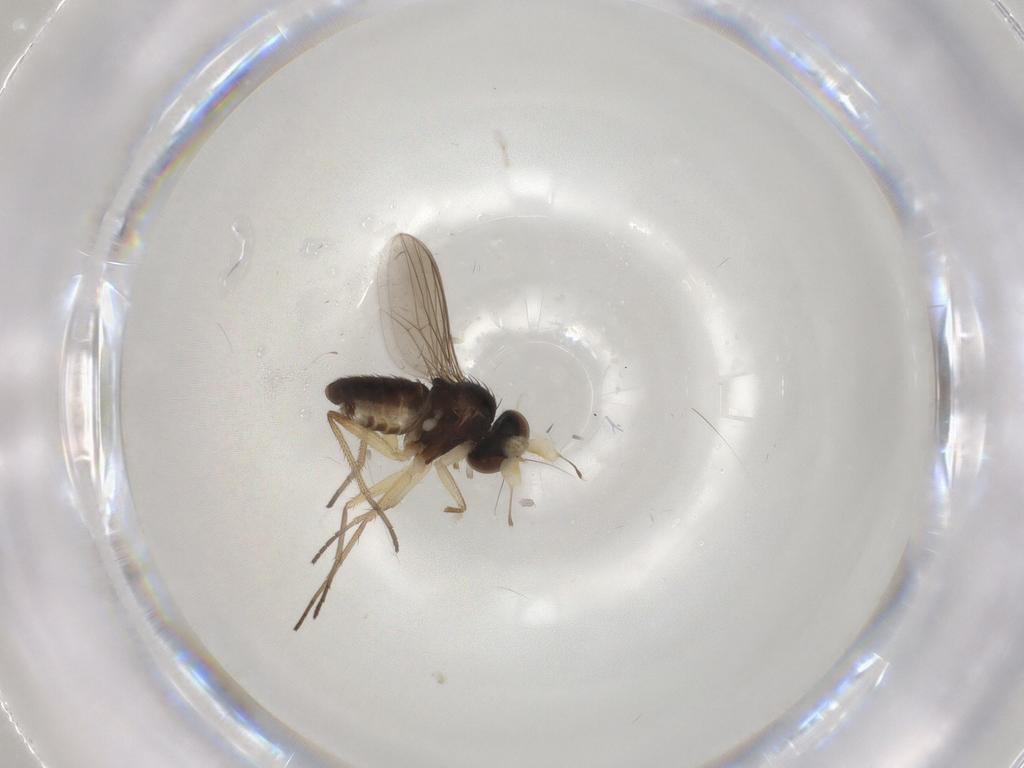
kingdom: Animalia
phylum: Arthropoda
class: Insecta
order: Diptera
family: Dolichopodidae
